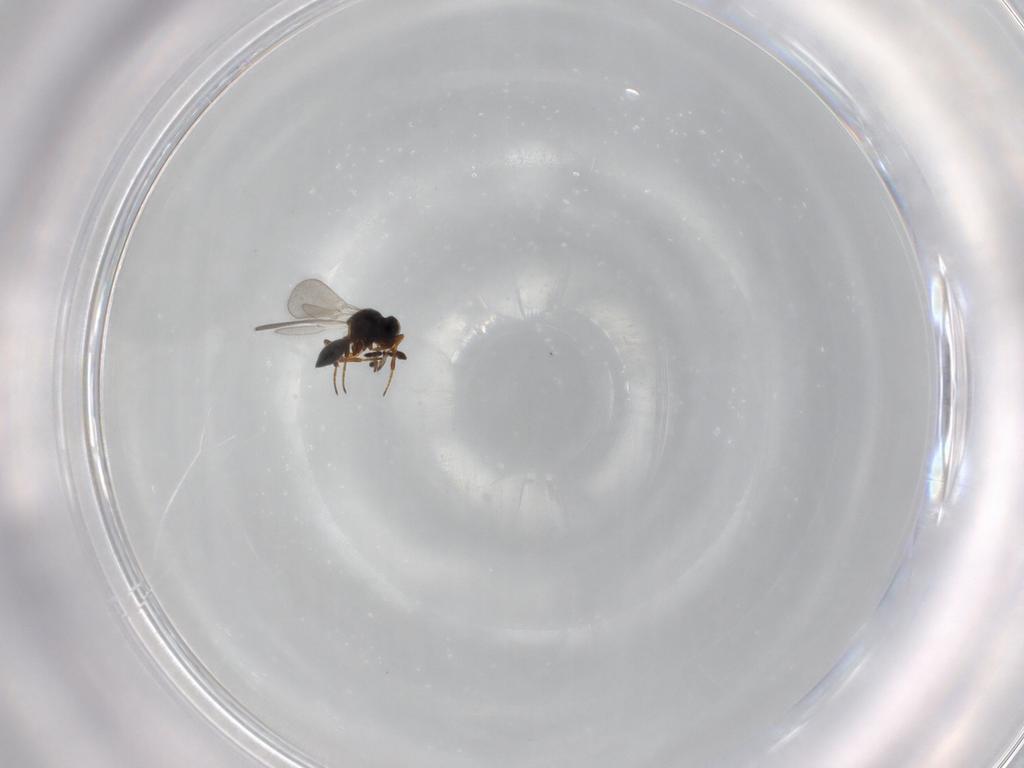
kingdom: Animalia
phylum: Arthropoda
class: Insecta
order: Hymenoptera
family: Platygastridae
